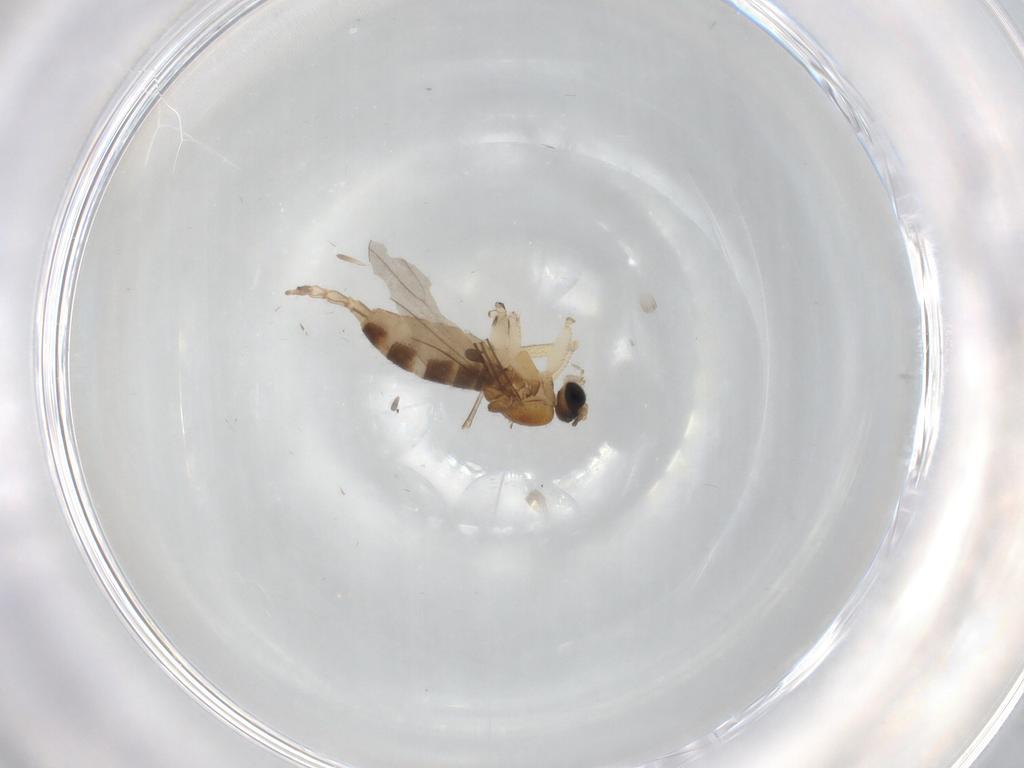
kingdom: Animalia
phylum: Arthropoda
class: Insecta
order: Diptera
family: Sciaridae
